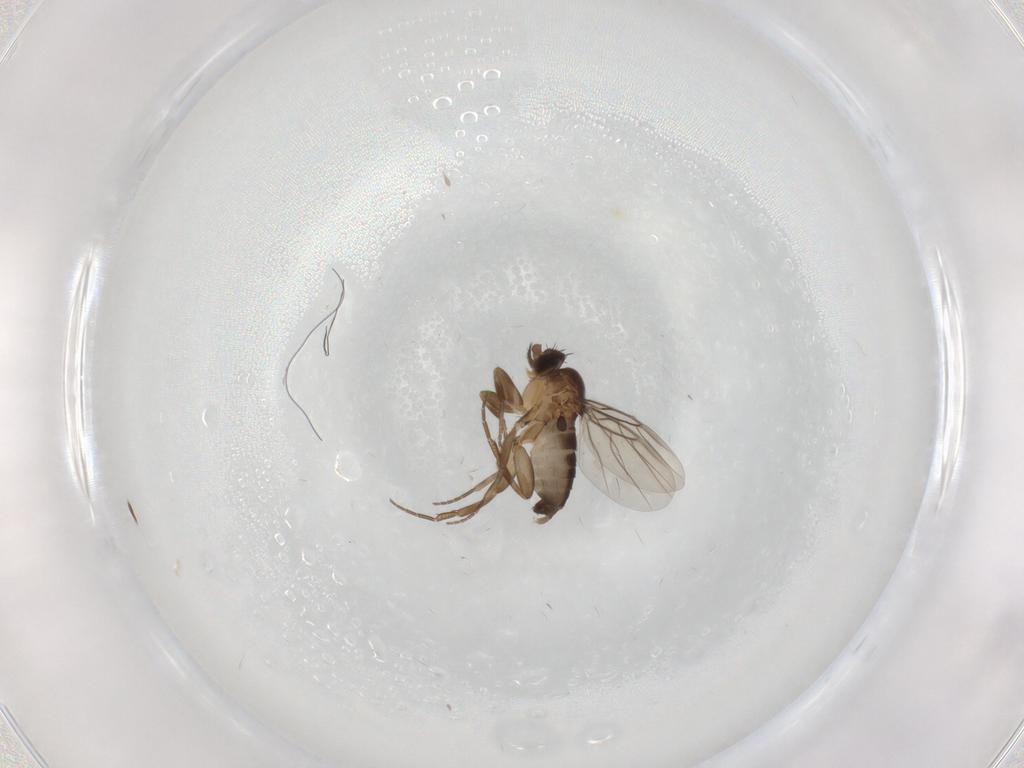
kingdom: Animalia
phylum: Arthropoda
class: Insecta
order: Diptera
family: Phoridae
